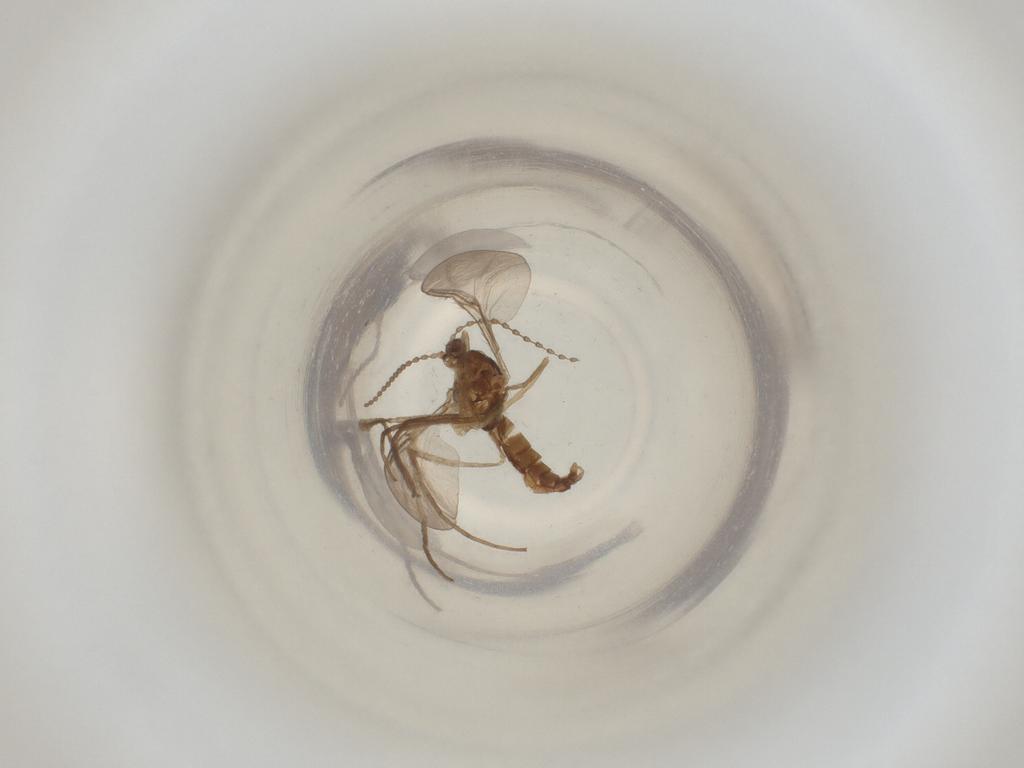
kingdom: Animalia
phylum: Arthropoda
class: Insecta
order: Diptera
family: Cecidomyiidae
